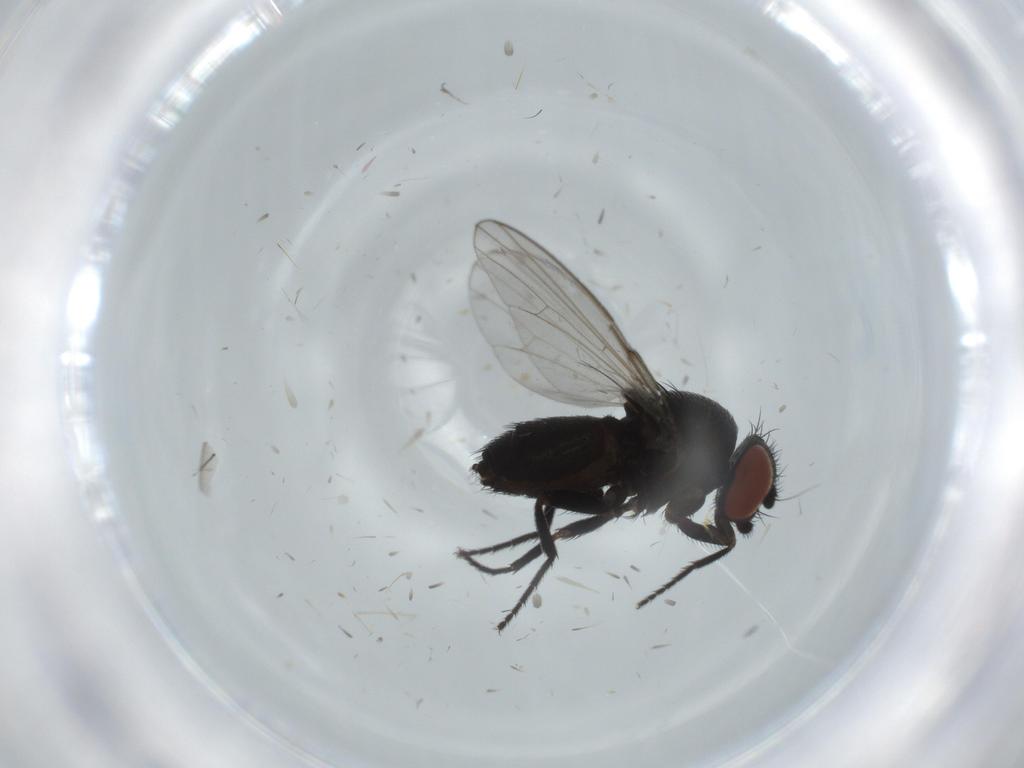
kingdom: Animalia
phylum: Arthropoda
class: Insecta
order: Diptera
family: Milichiidae
